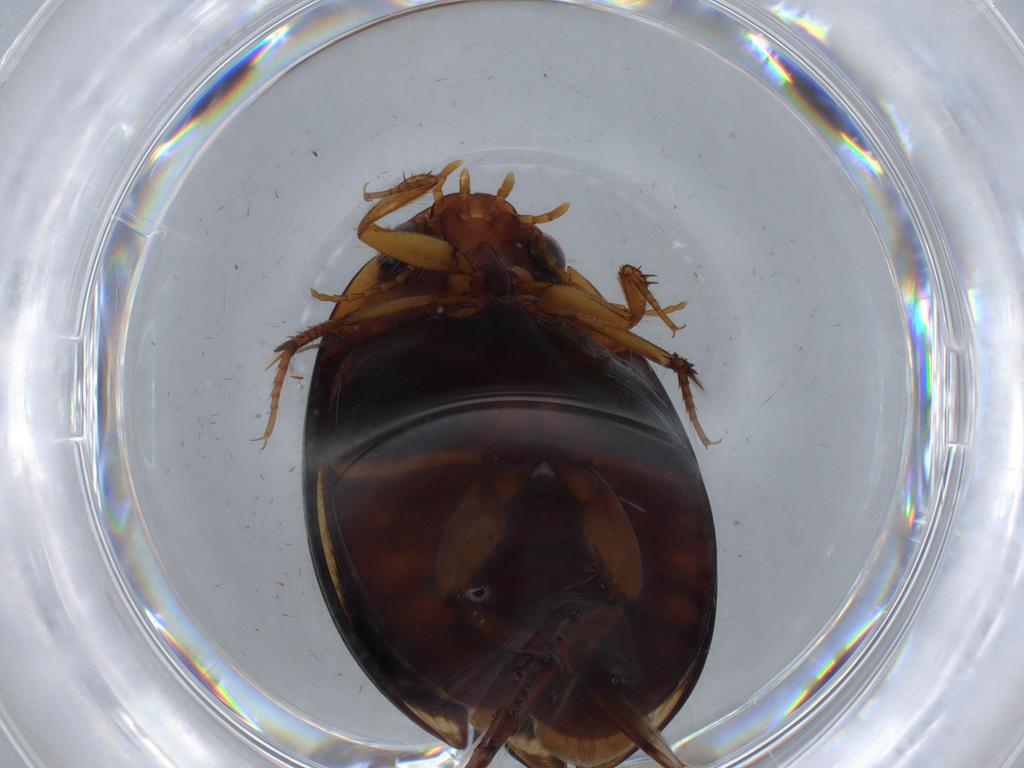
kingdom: Animalia
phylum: Arthropoda
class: Insecta
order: Coleoptera
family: Dytiscidae
